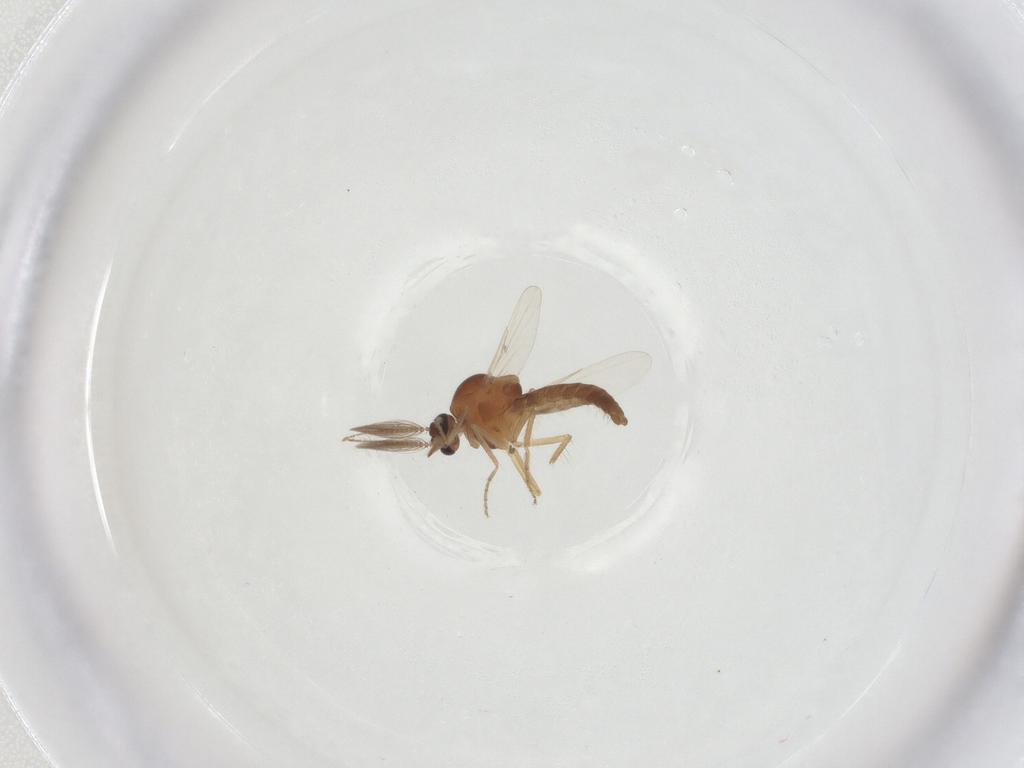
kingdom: Animalia
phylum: Arthropoda
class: Insecta
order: Diptera
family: Ceratopogonidae
